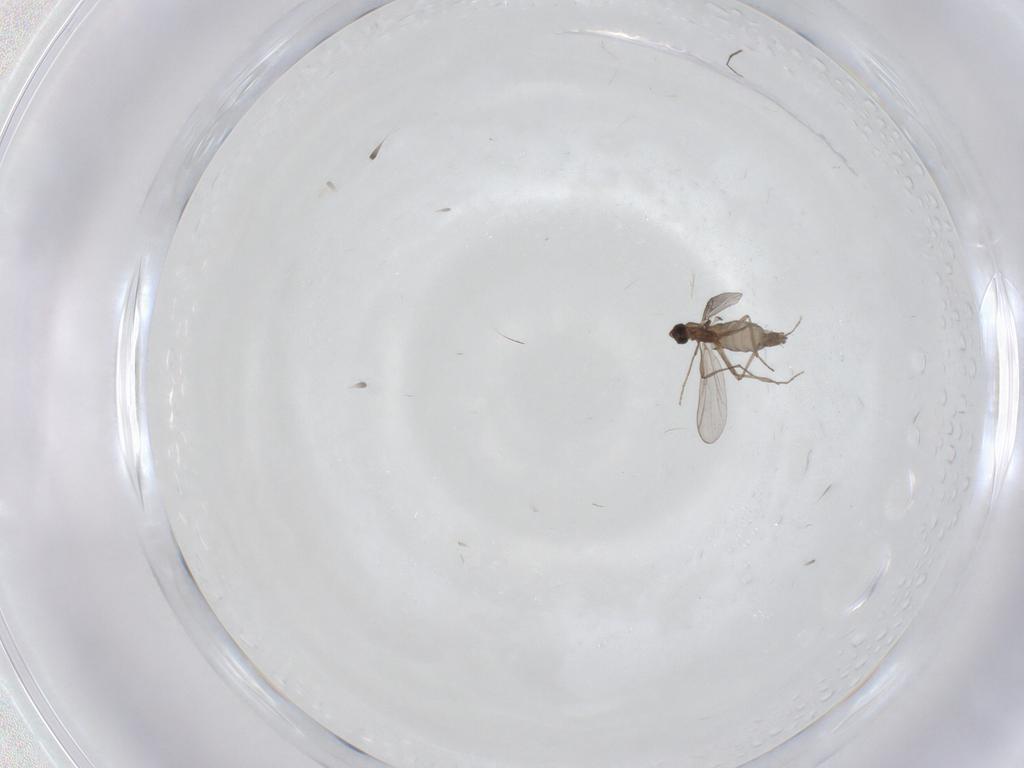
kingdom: Animalia
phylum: Arthropoda
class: Insecta
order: Diptera
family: Chironomidae
